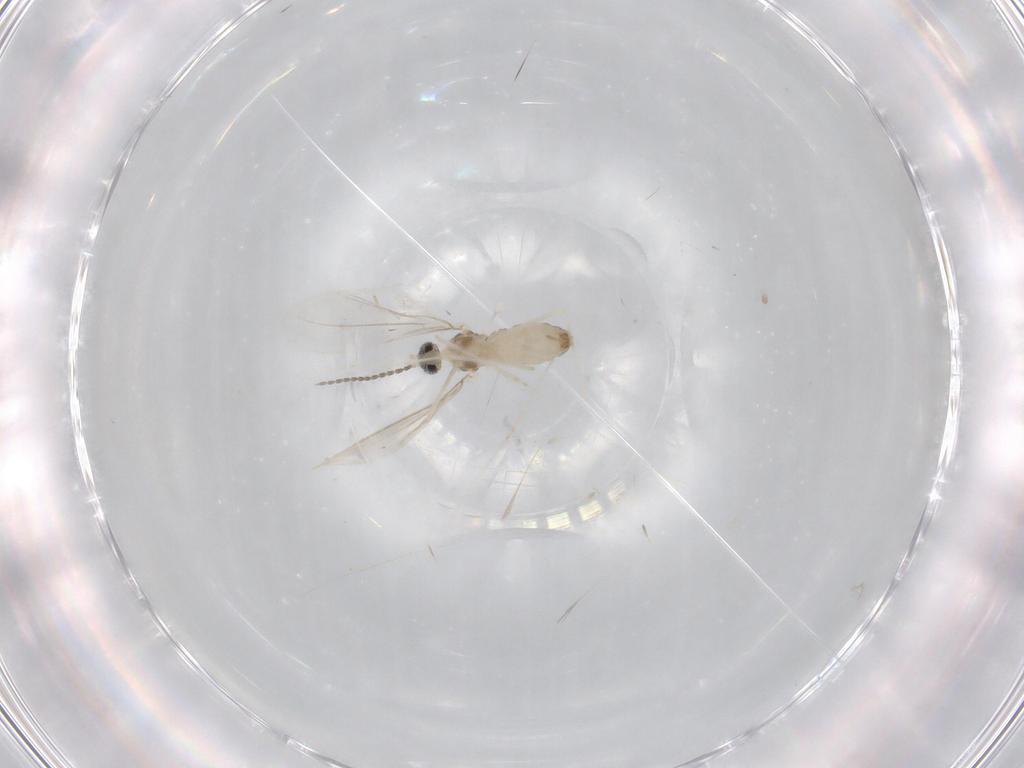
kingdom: Animalia
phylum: Arthropoda
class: Insecta
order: Diptera
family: Cecidomyiidae
